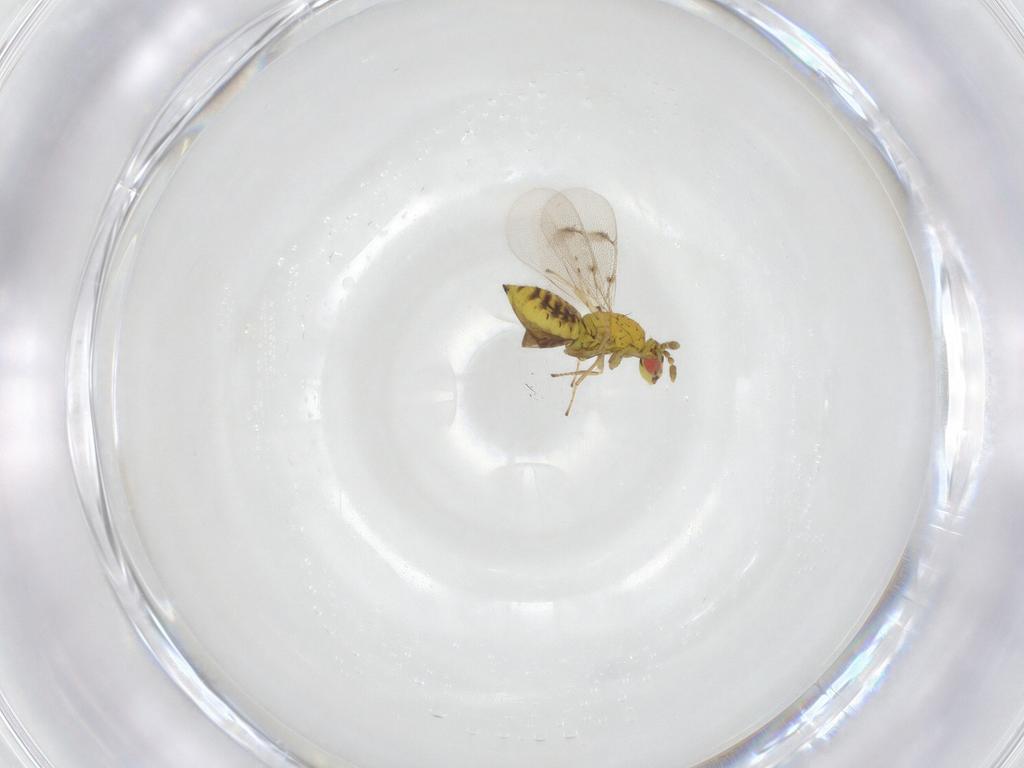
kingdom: Animalia
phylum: Arthropoda
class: Insecta
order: Hymenoptera
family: Eulophidae
